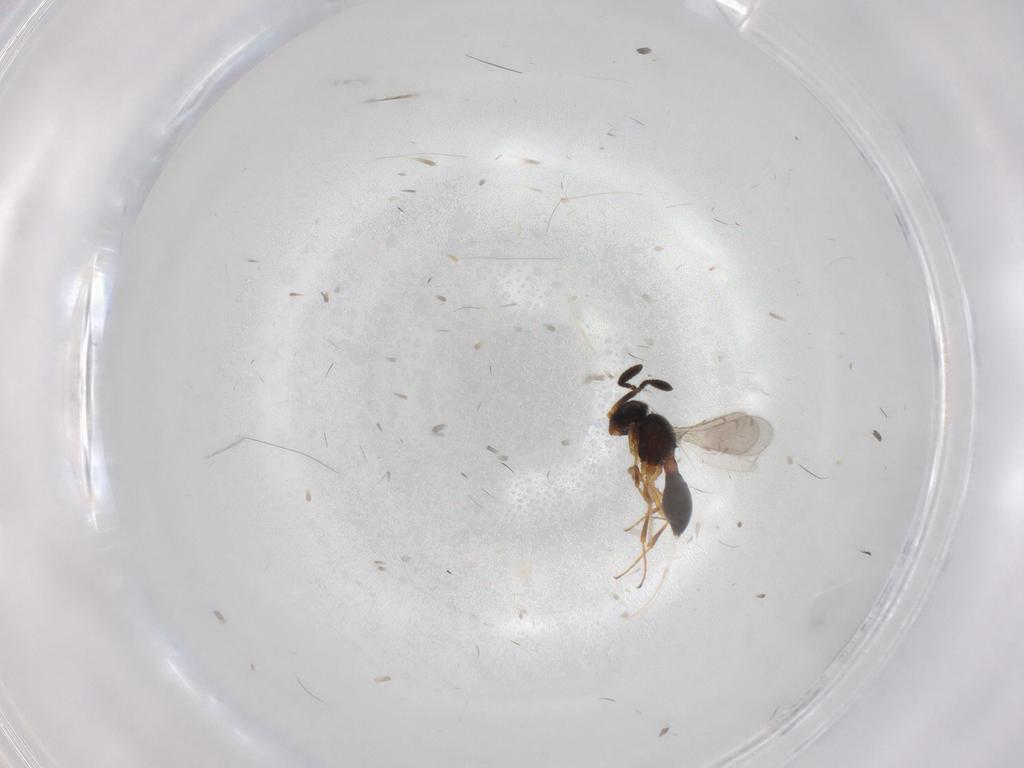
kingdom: Animalia
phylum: Arthropoda
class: Insecta
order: Hymenoptera
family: Scelionidae
